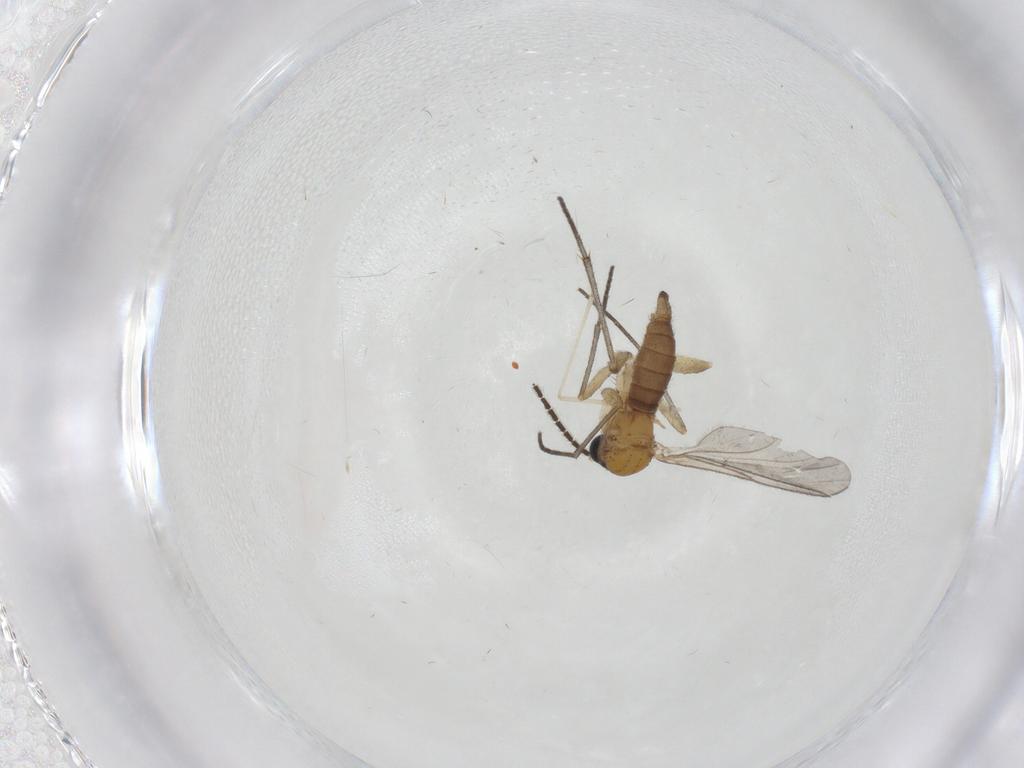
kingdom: Animalia
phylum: Arthropoda
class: Insecta
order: Diptera
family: Sciaridae
